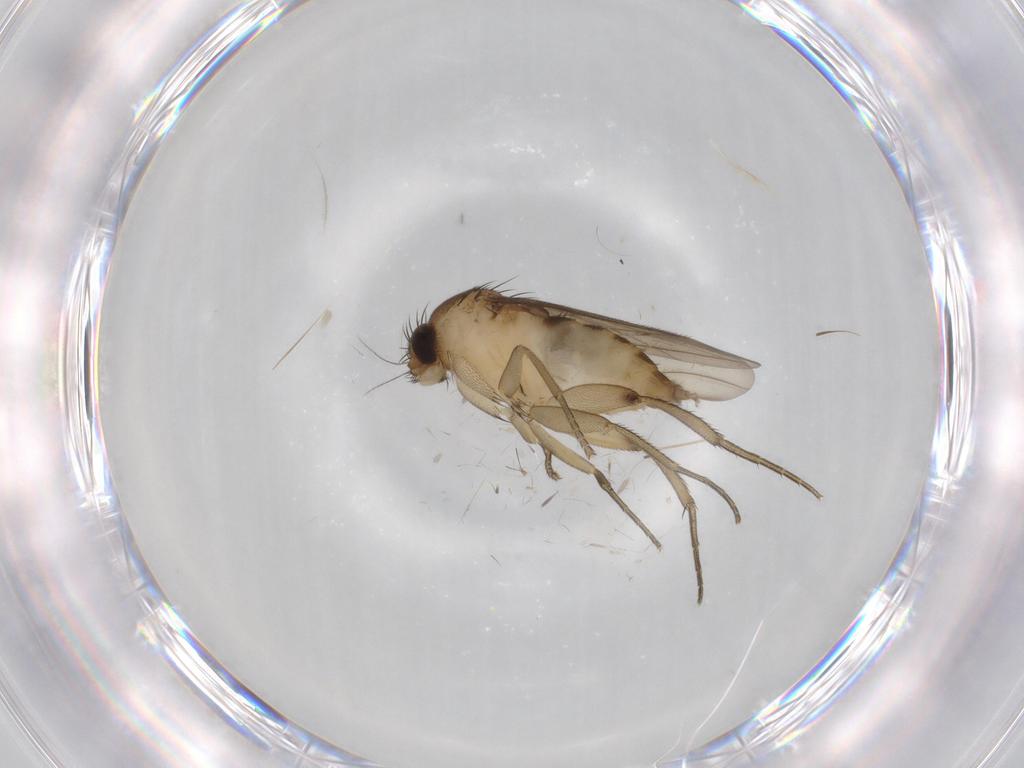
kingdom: Animalia
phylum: Arthropoda
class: Insecta
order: Diptera
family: Phoridae
